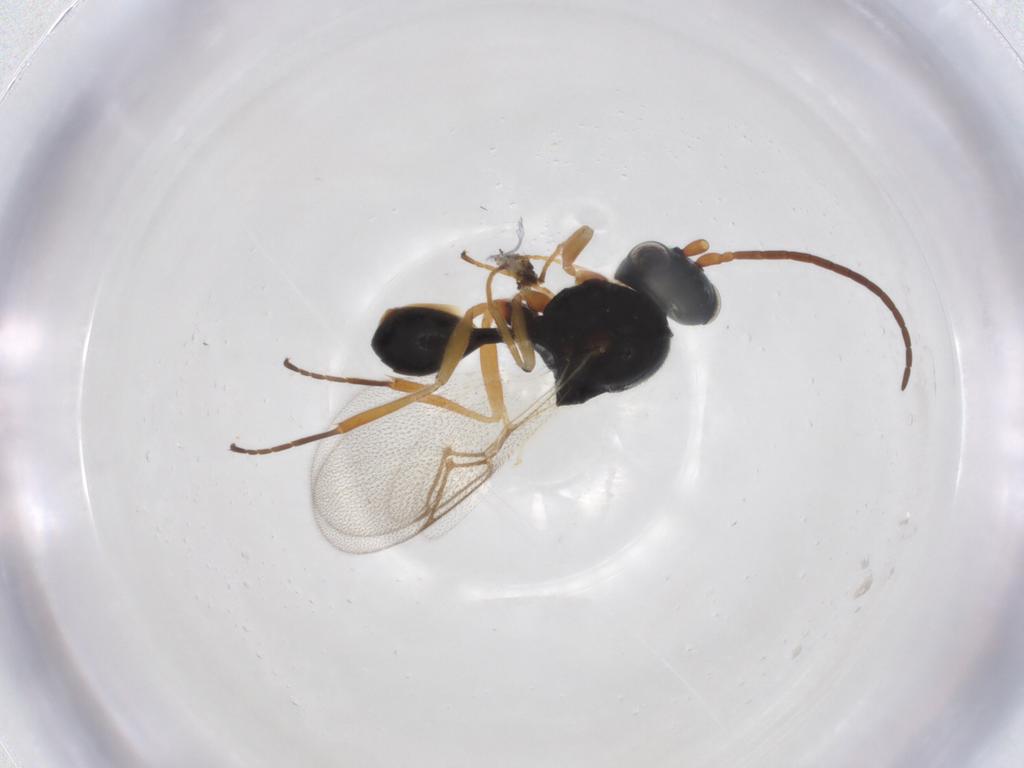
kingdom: Animalia
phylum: Arthropoda
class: Insecta
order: Hymenoptera
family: Figitidae
